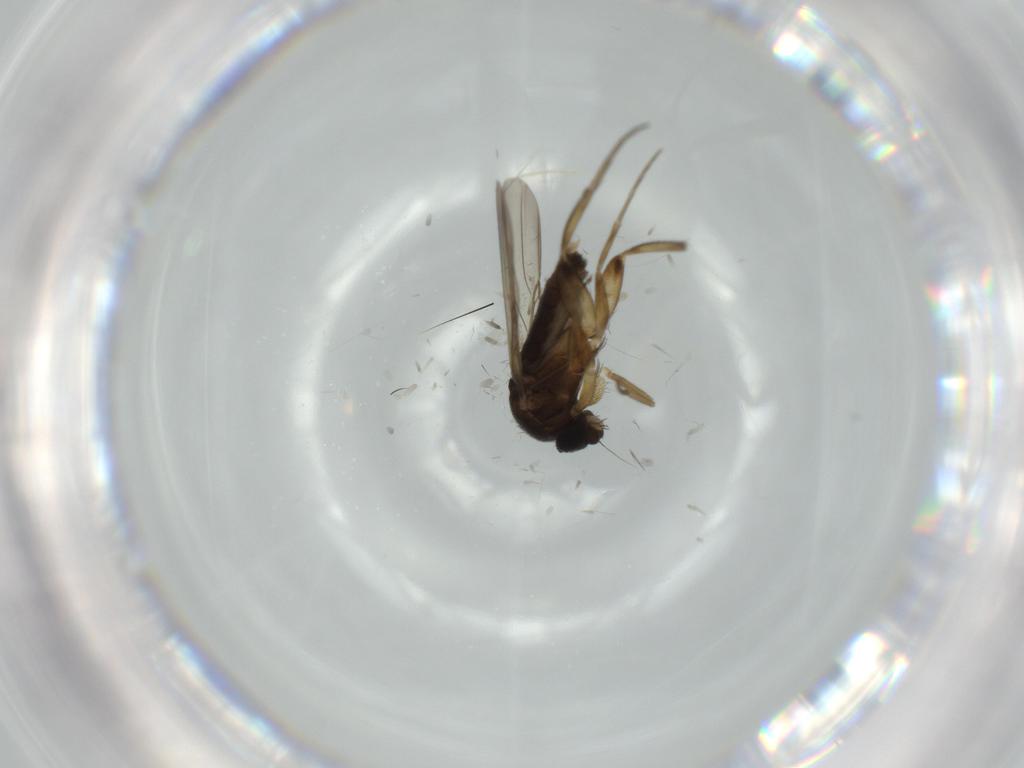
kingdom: Animalia
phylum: Arthropoda
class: Insecta
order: Diptera
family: Phoridae
